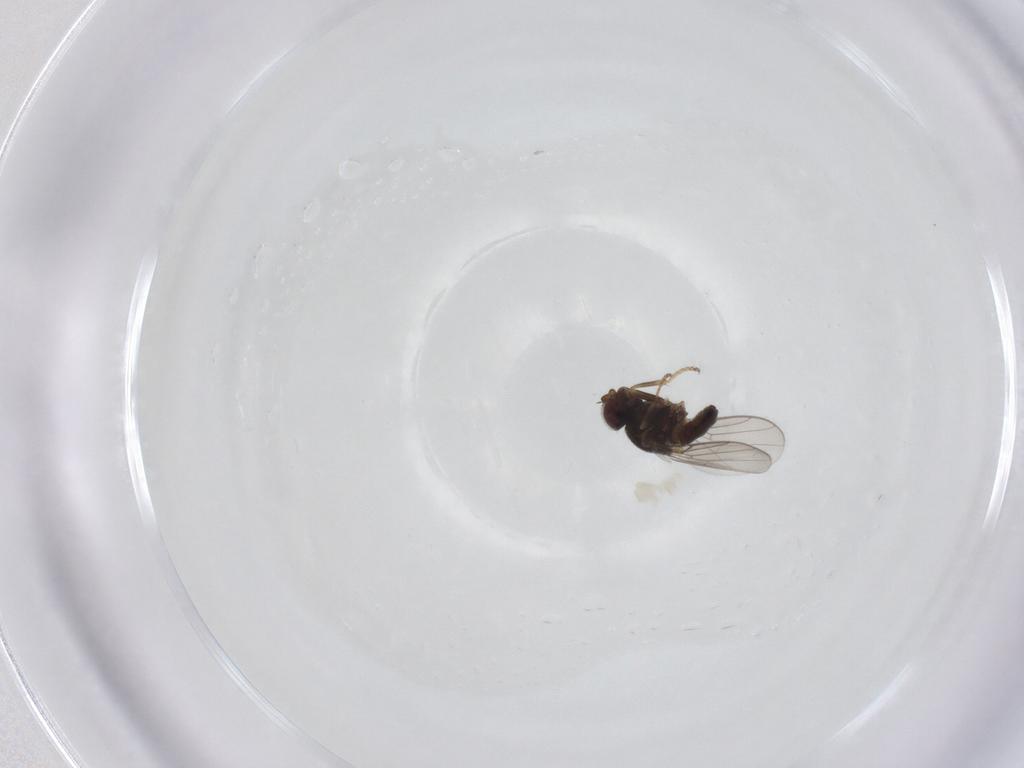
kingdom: Animalia
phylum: Arthropoda
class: Insecta
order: Diptera
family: Chloropidae
